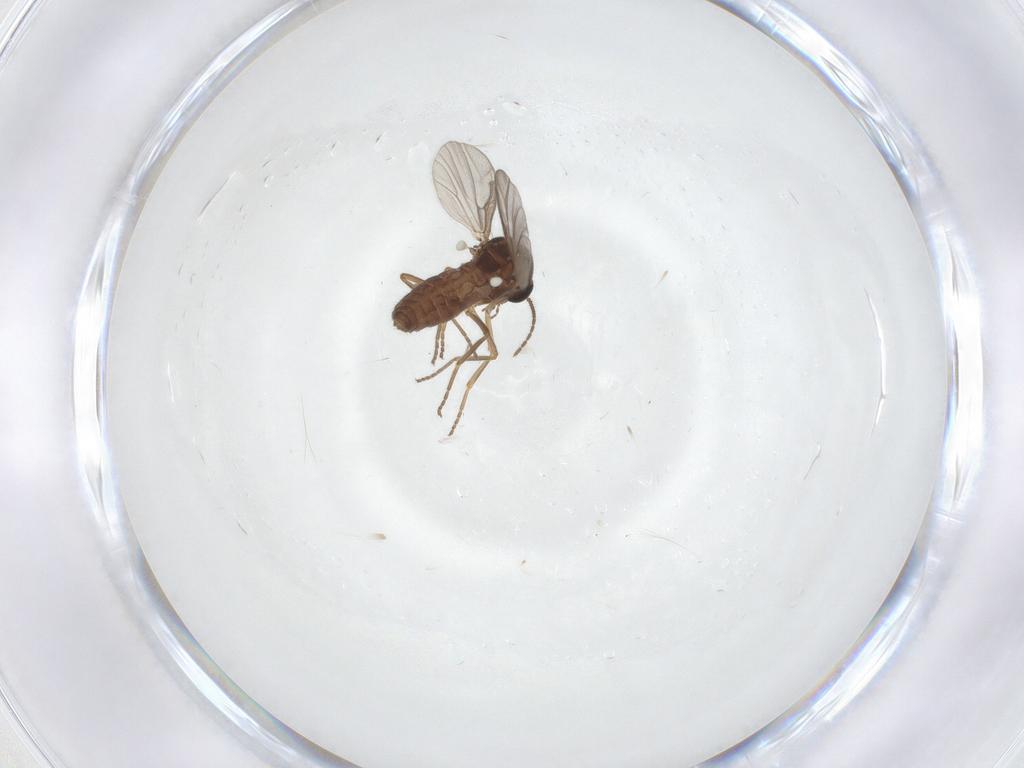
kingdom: Animalia
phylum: Arthropoda
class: Insecta
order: Diptera
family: Ceratopogonidae
